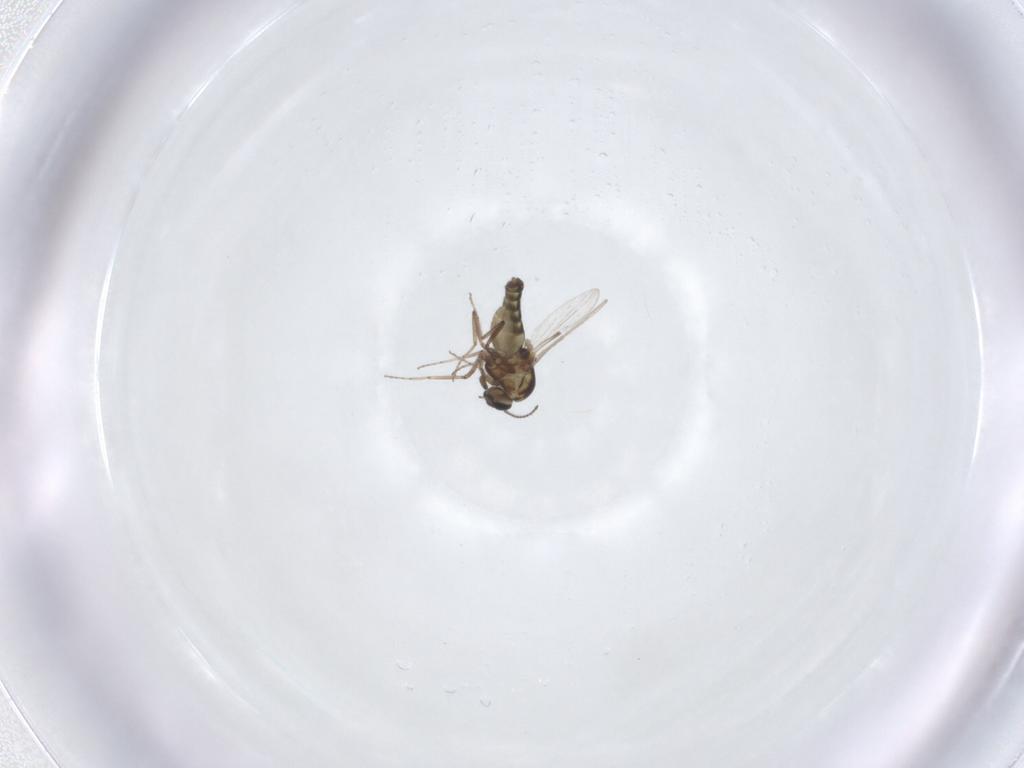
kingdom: Animalia
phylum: Arthropoda
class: Insecta
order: Diptera
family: Ceratopogonidae
